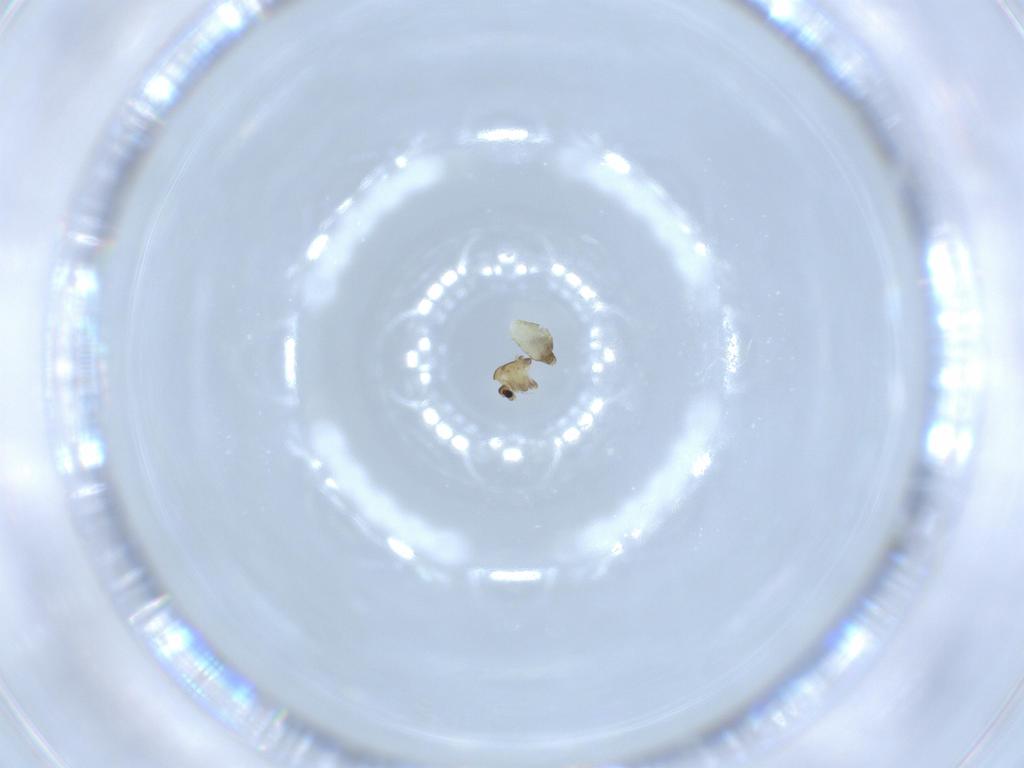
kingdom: Animalia
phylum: Arthropoda
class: Insecta
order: Diptera
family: Chironomidae
